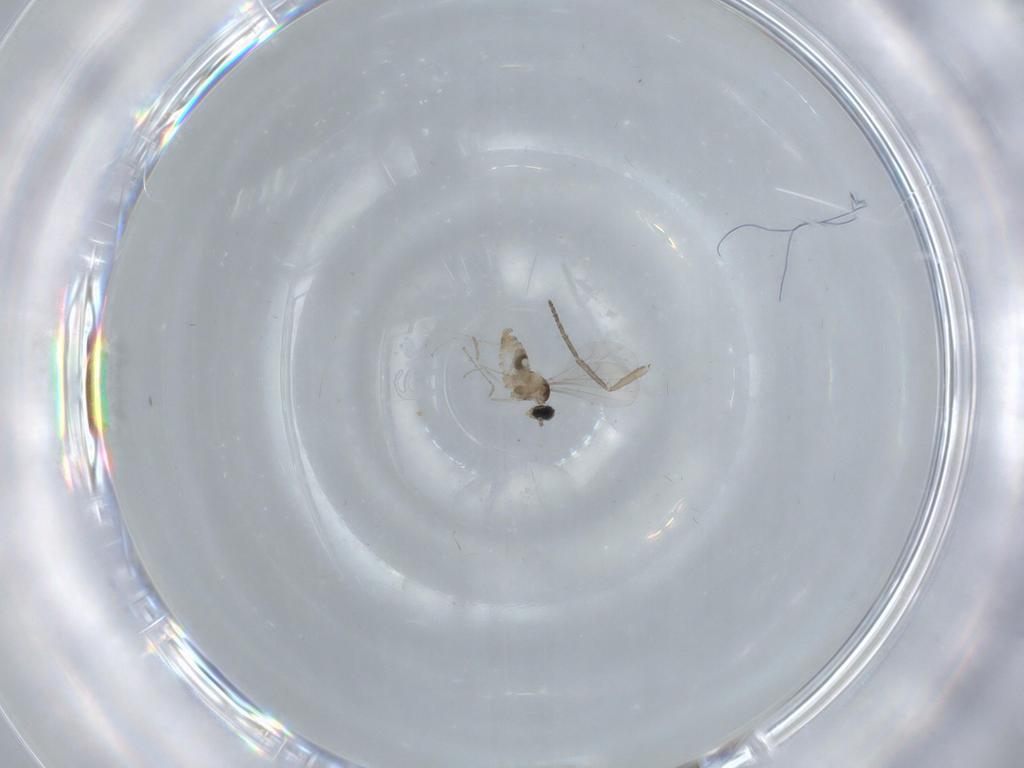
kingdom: Animalia
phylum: Arthropoda
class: Insecta
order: Diptera
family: Cecidomyiidae
